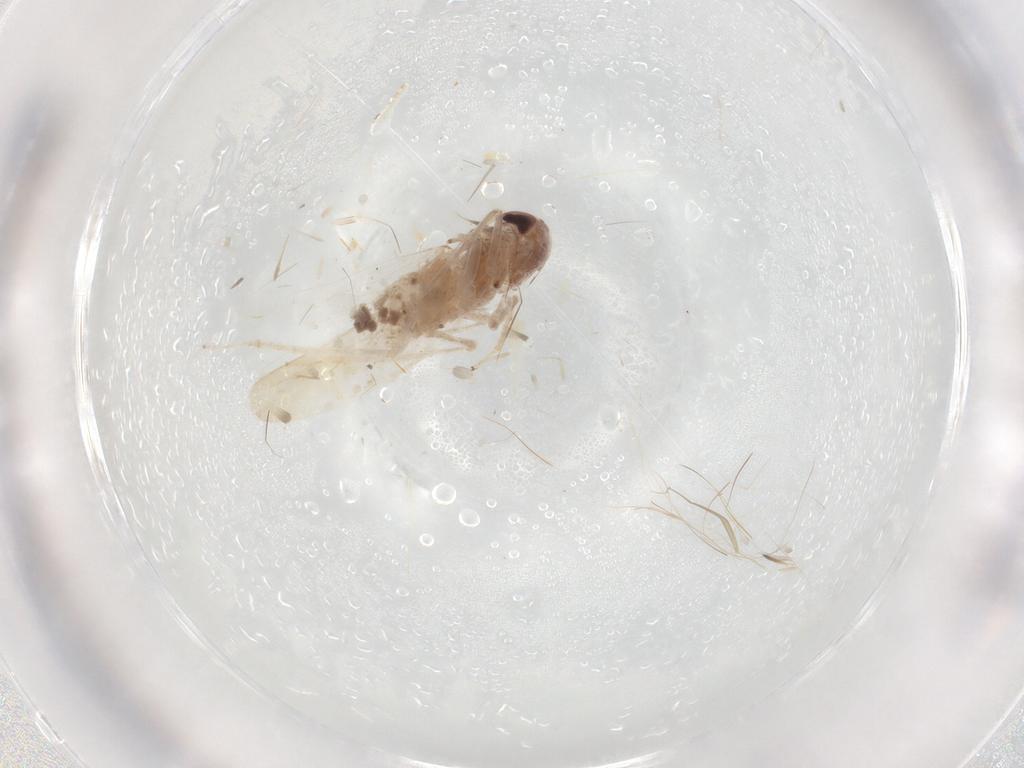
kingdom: Animalia
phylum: Arthropoda
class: Insecta
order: Hemiptera
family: Cicadellidae
